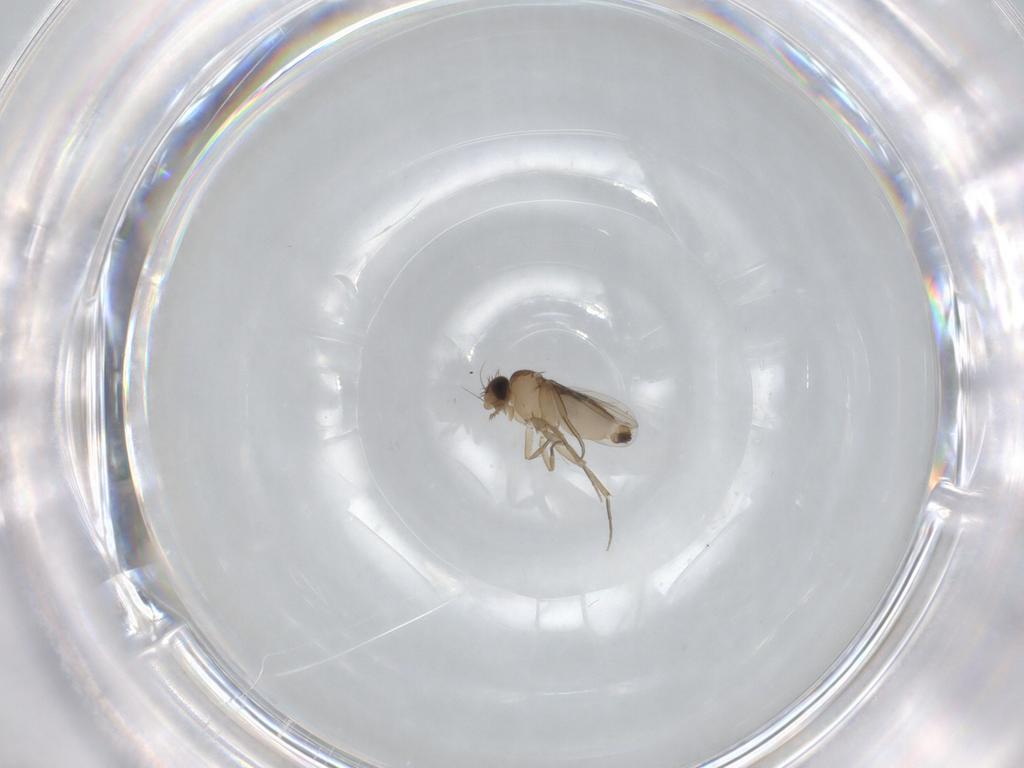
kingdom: Animalia
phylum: Arthropoda
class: Insecta
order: Diptera
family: Phoridae
